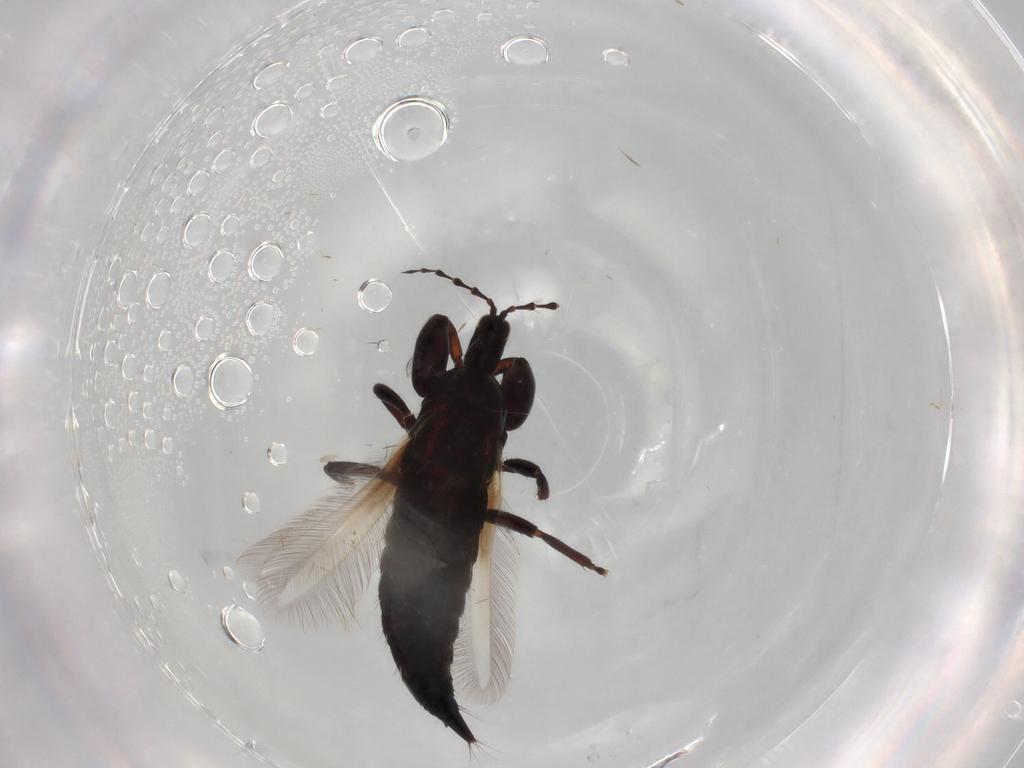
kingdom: Animalia
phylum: Arthropoda
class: Insecta
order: Thysanoptera
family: Phlaeothripidae
